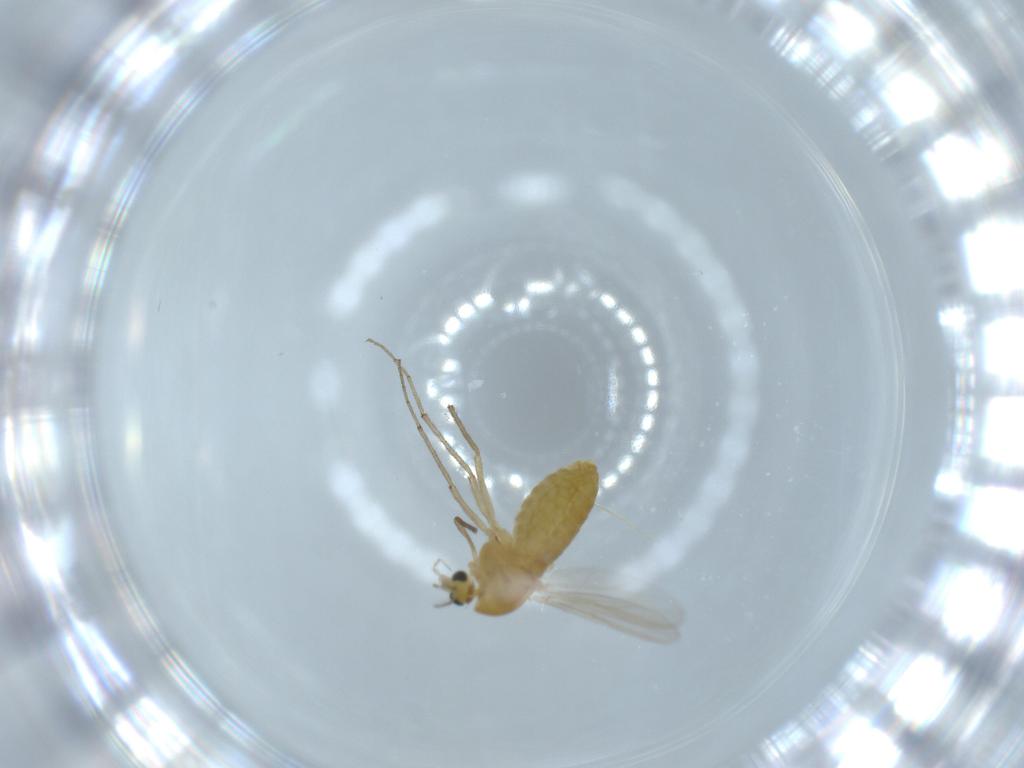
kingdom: Animalia
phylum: Arthropoda
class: Insecta
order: Diptera
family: Chironomidae
